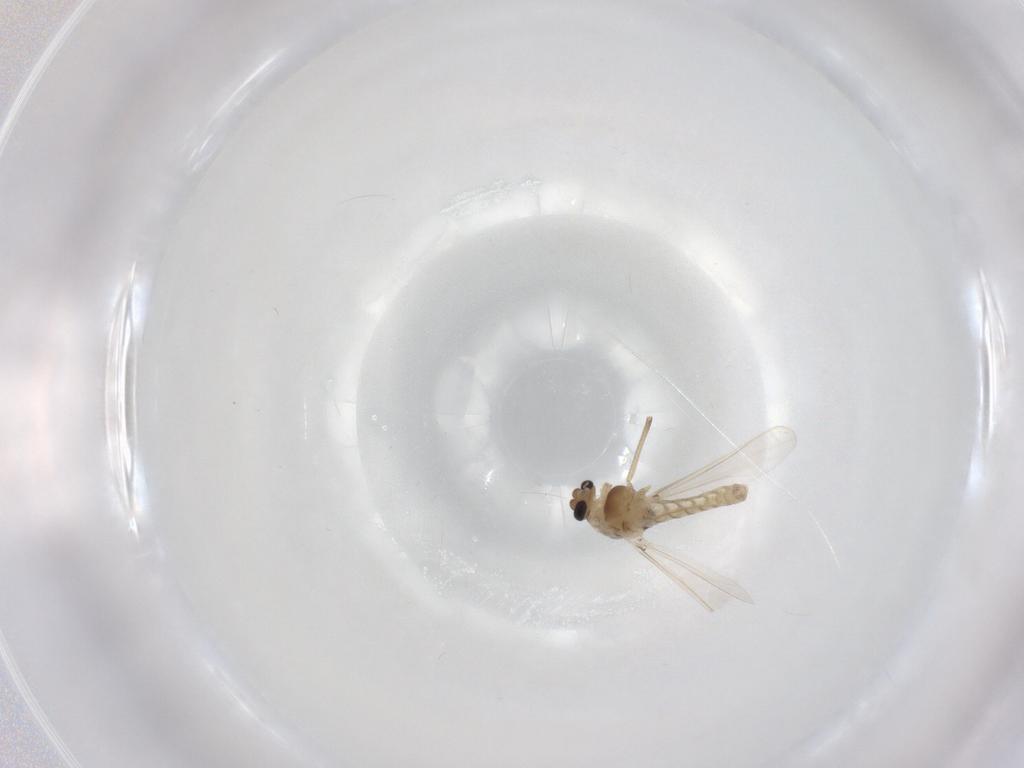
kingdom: Animalia
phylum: Arthropoda
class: Insecta
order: Diptera
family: Chironomidae
